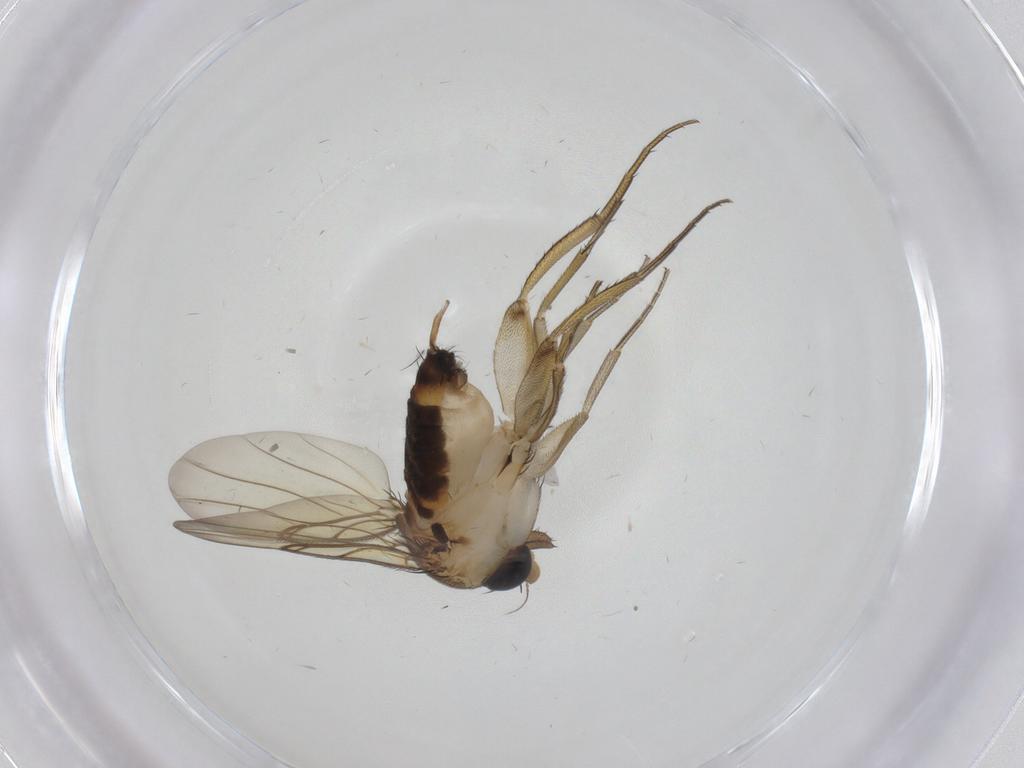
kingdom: Animalia
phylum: Arthropoda
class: Insecta
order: Diptera
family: Phoridae
